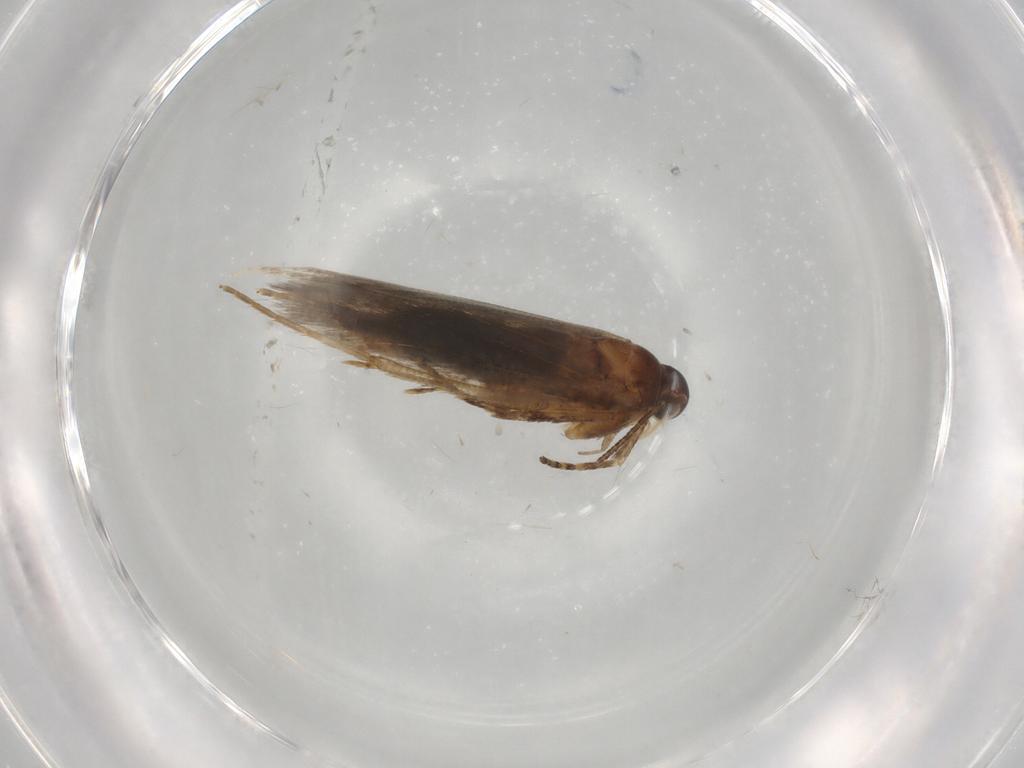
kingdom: Animalia
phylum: Arthropoda
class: Insecta
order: Lepidoptera
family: Gelechiidae
